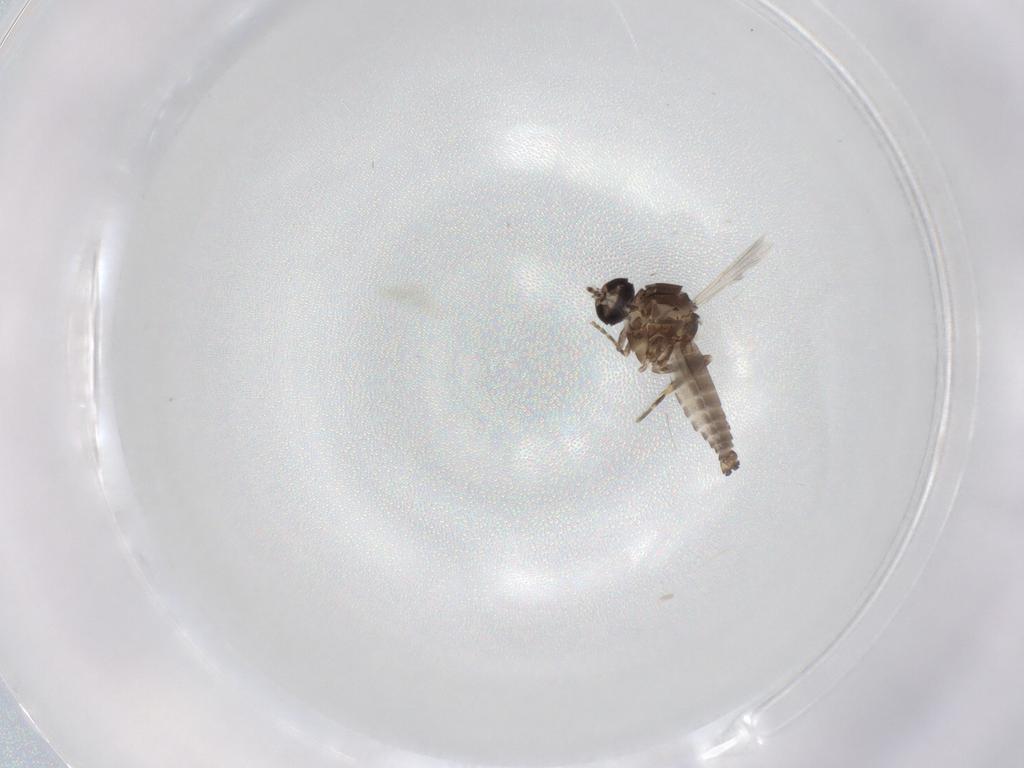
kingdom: Animalia
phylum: Arthropoda
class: Insecta
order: Diptera
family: Ceratopogonidae
